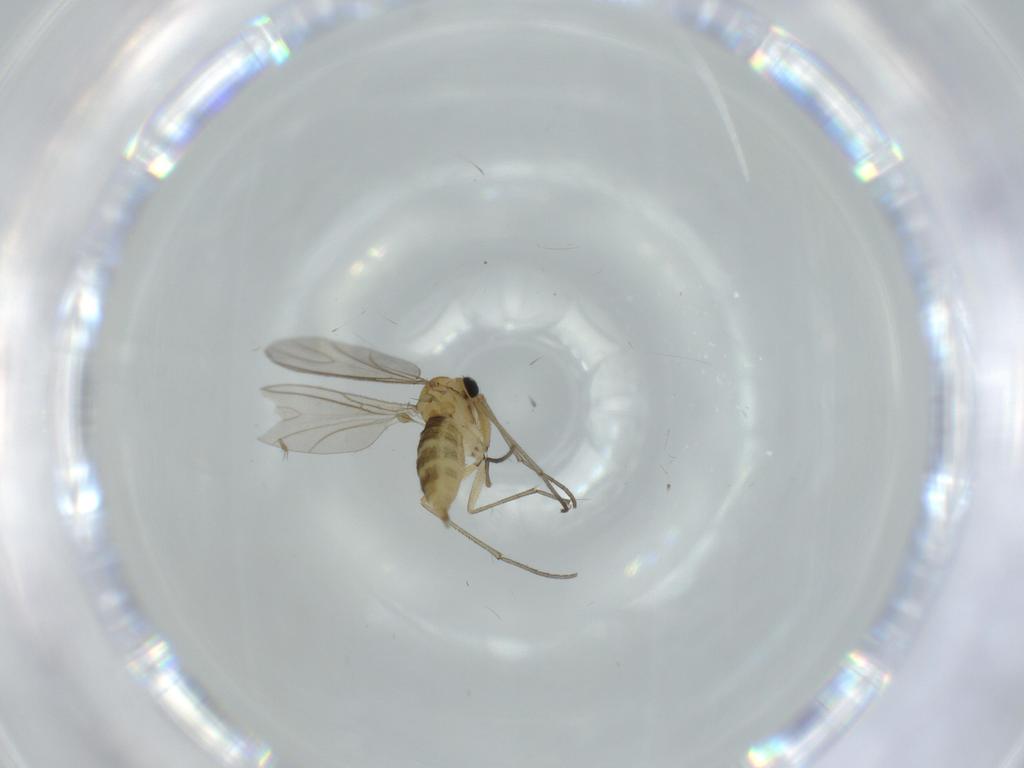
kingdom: Animalia
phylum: Arthropoda
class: Insecta
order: Diptera
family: Sciaridae
